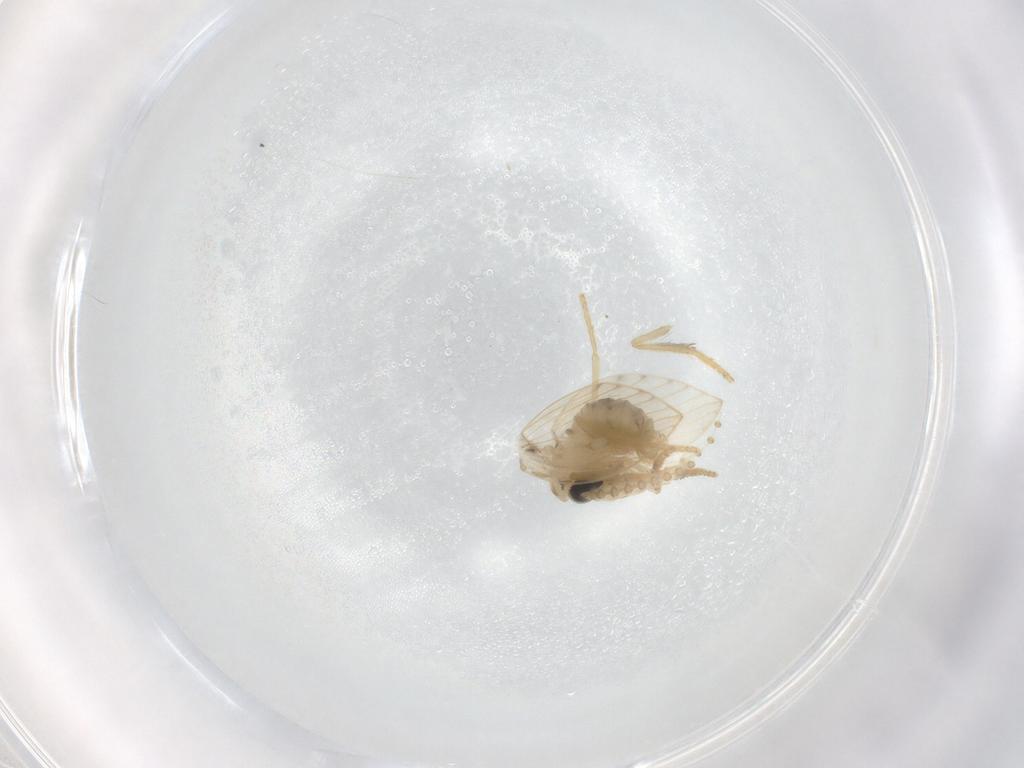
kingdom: Animalia
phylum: Arthropoda
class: Insecta
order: Diptera
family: Psychodidae
